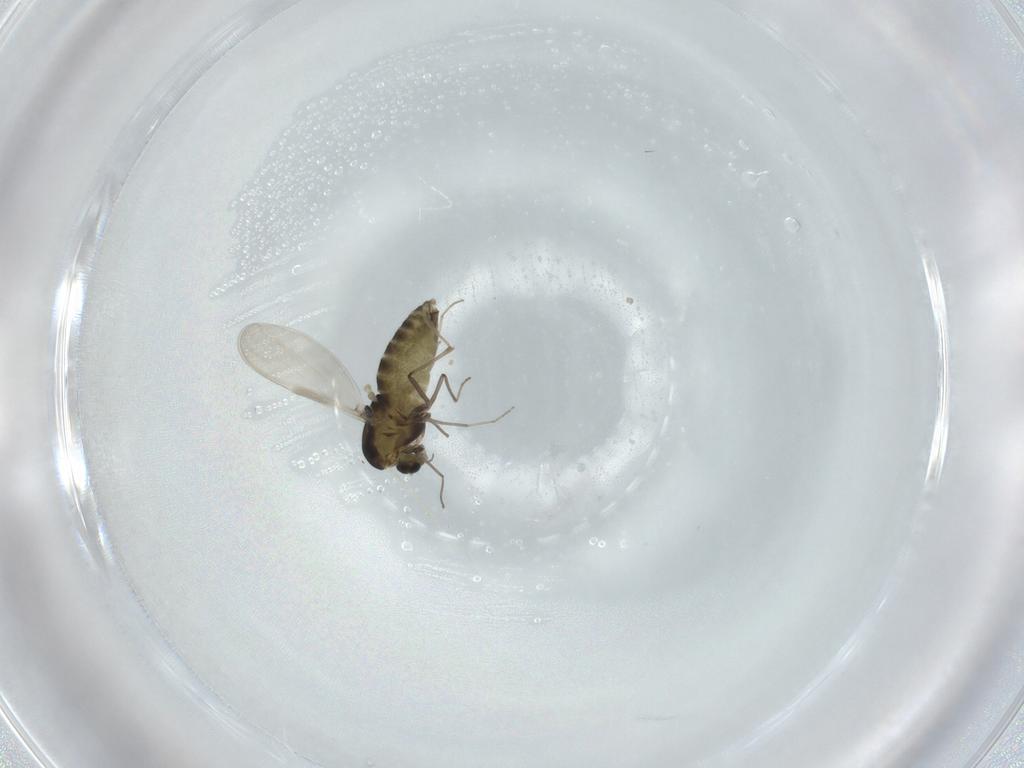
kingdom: Animalia
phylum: Arthropoda
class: Insecta
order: Diptera
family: Phoridae
